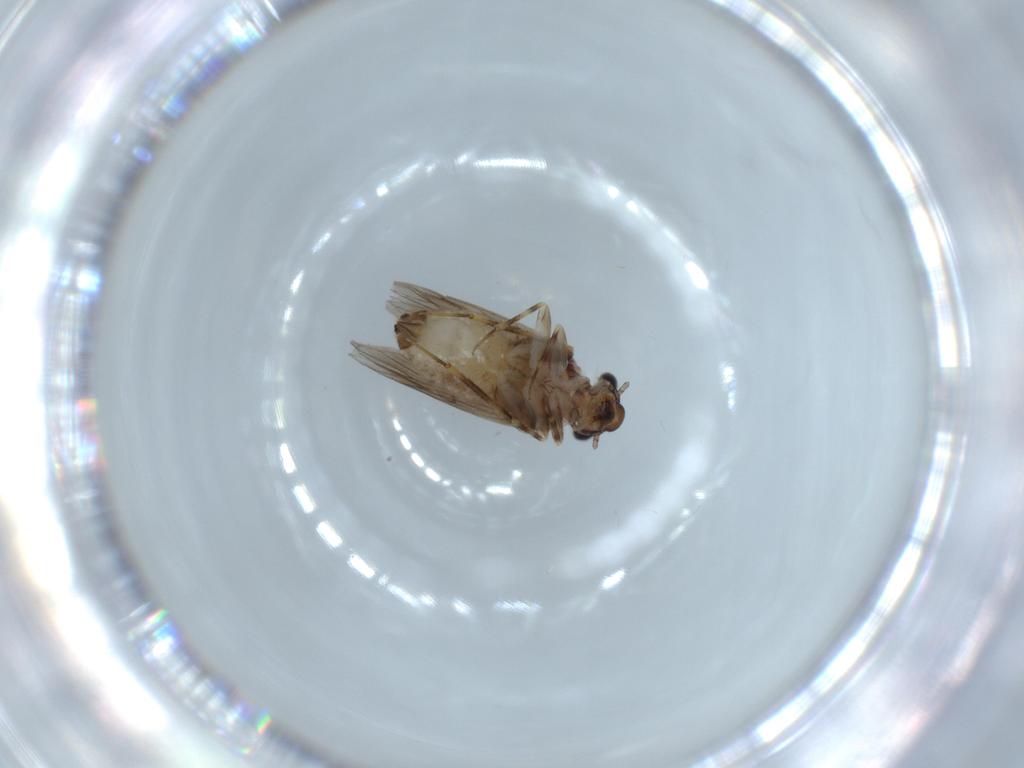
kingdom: Animalia
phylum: Arthropoda
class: Insecta
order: Psocodea
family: Lepidopsocidae
